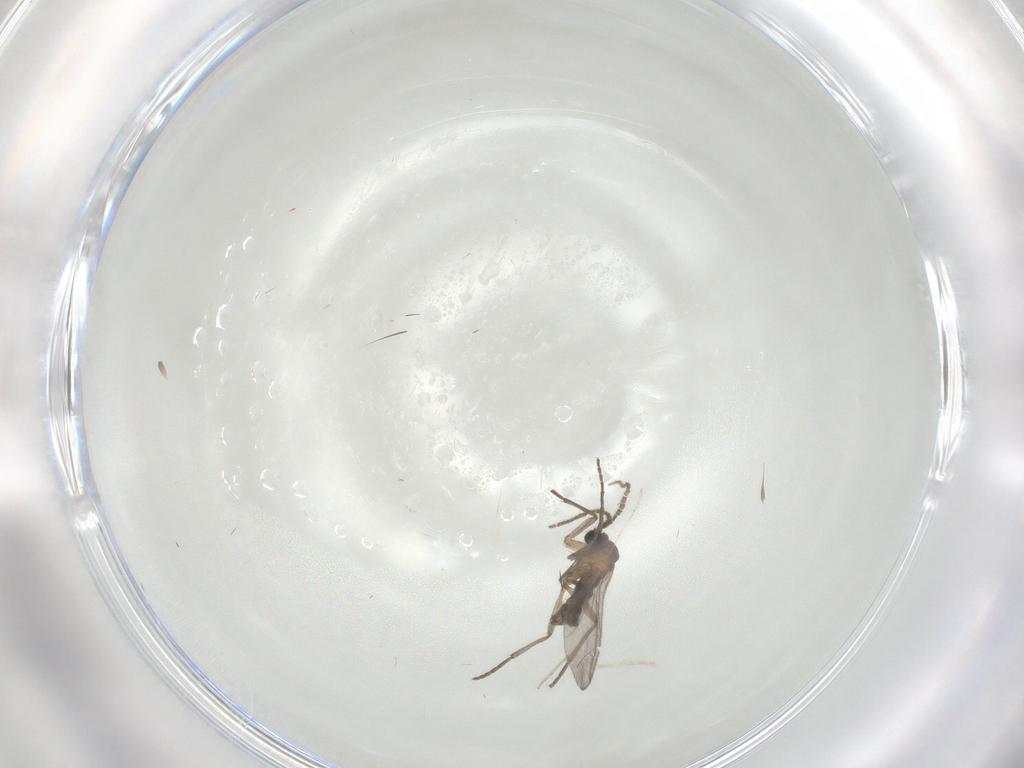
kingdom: Animalia
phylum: Arthropoda
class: Insecta
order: Diptera
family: Sciaridae
